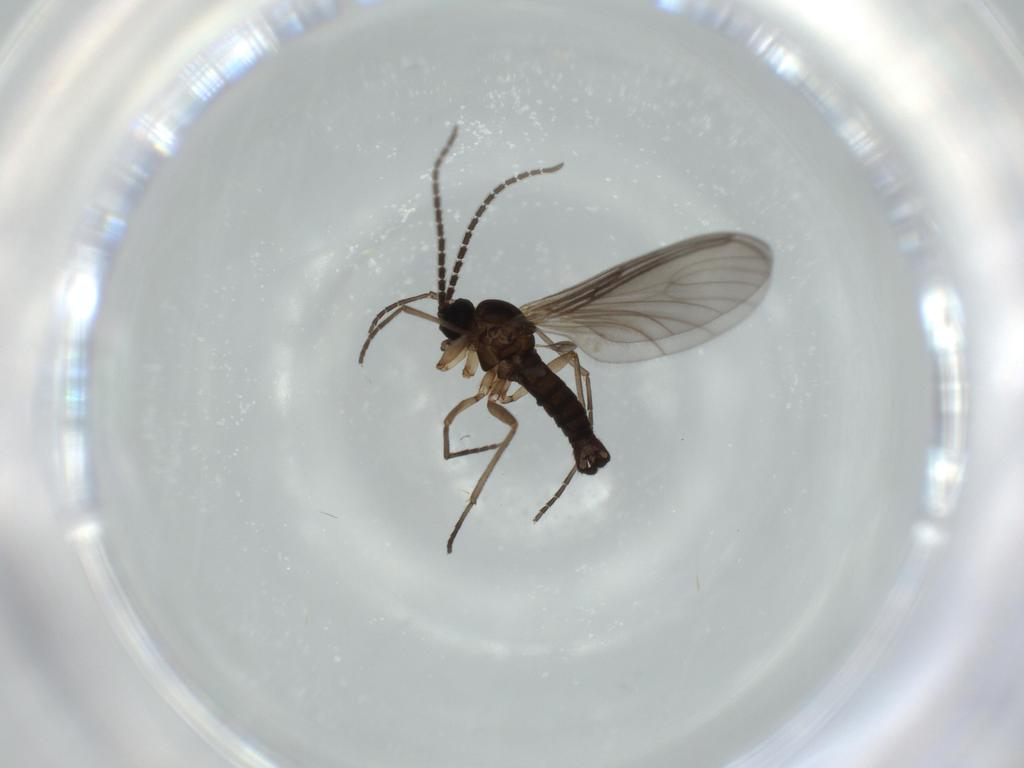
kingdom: Animalia
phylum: Arthropoda
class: Insecta
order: Diptera
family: Sciaridae
